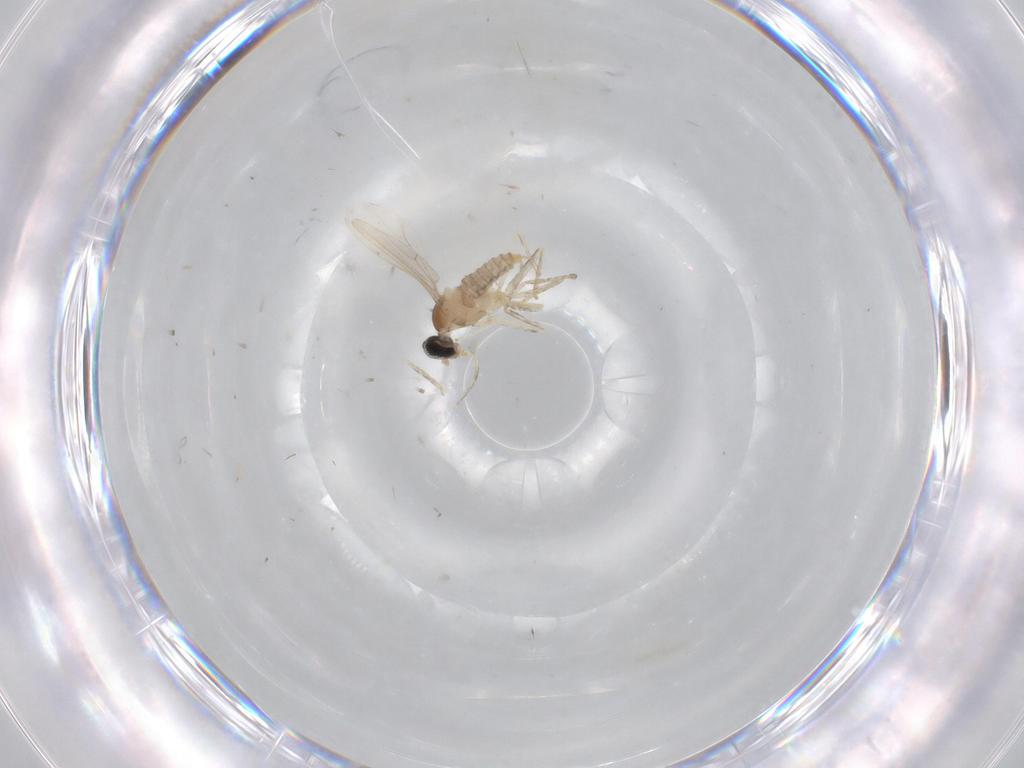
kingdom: Animalia
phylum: Arthropoda
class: Insecta
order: Diptera
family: Cecidomyiidae
